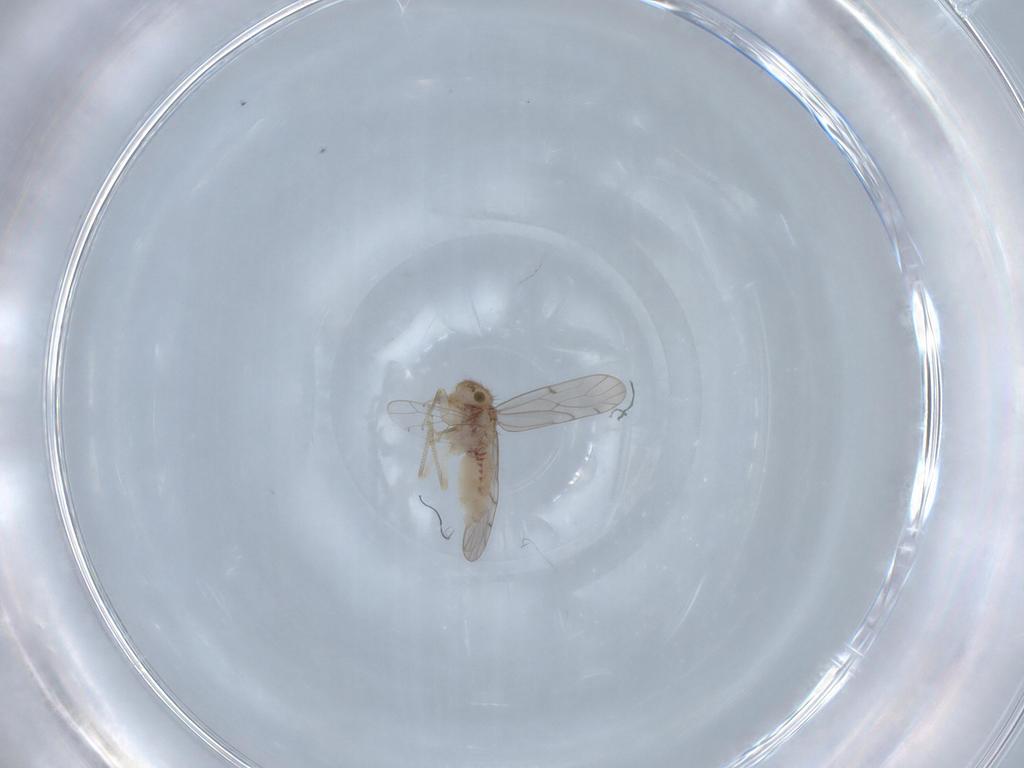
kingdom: Animalia
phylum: Arthropoda
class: Insecta
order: Psocodea
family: Ectopsocidae
